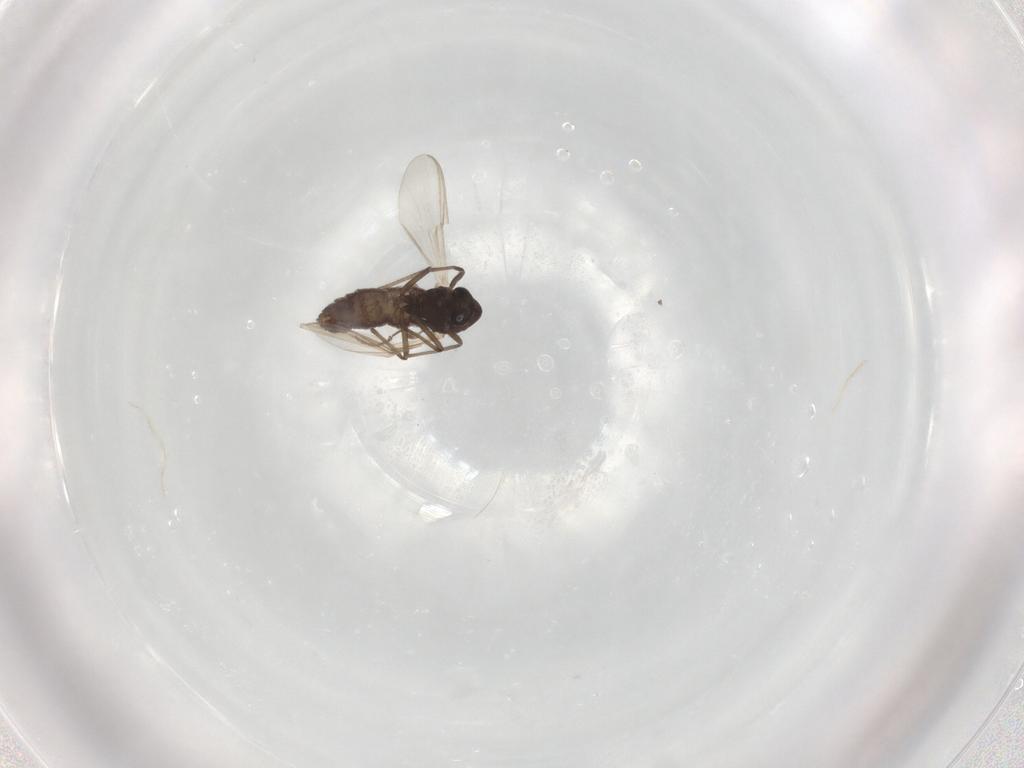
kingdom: Animalia
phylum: Arthropoda
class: Insecta
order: Diptera
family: Chironomidae
